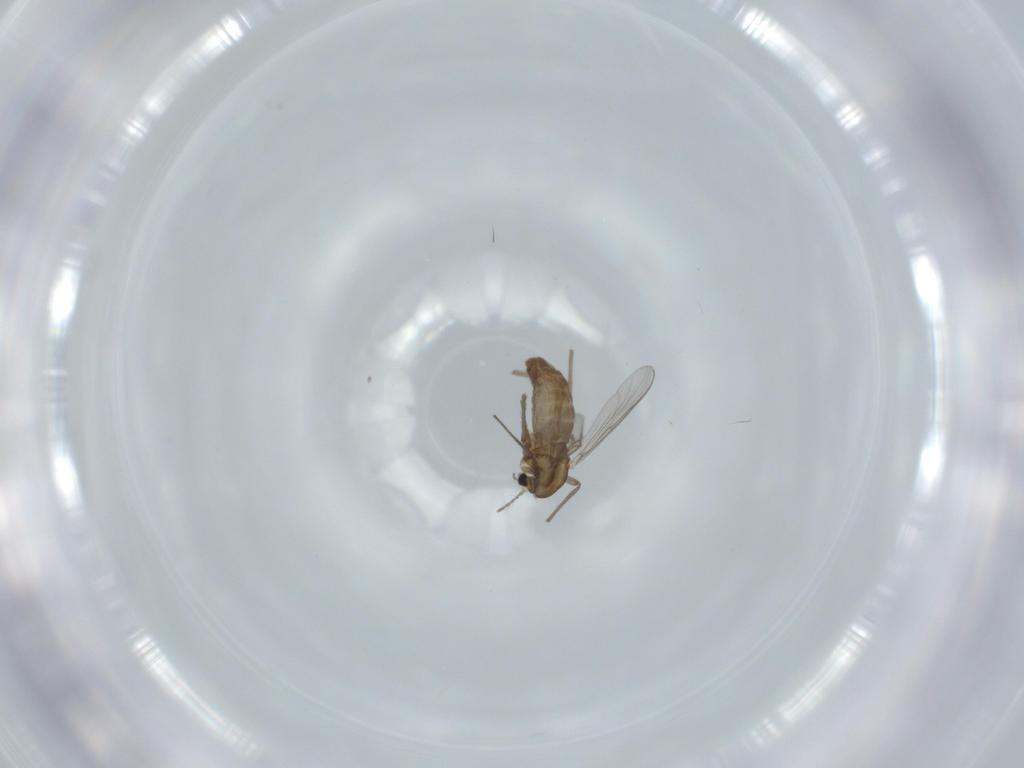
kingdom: Animalia
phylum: Arthropoda
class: Insecta
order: Diptera
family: Chironomidae
